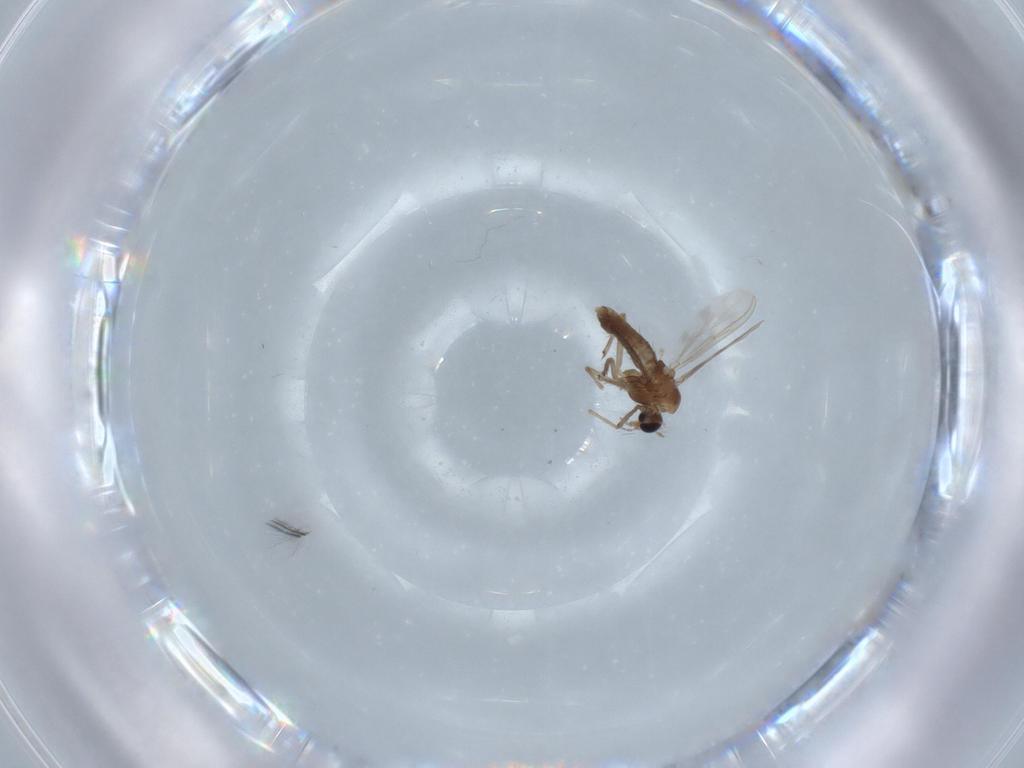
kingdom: Animalia
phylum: Arthropoda
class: Insecta
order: Diptera
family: Chironomidae
